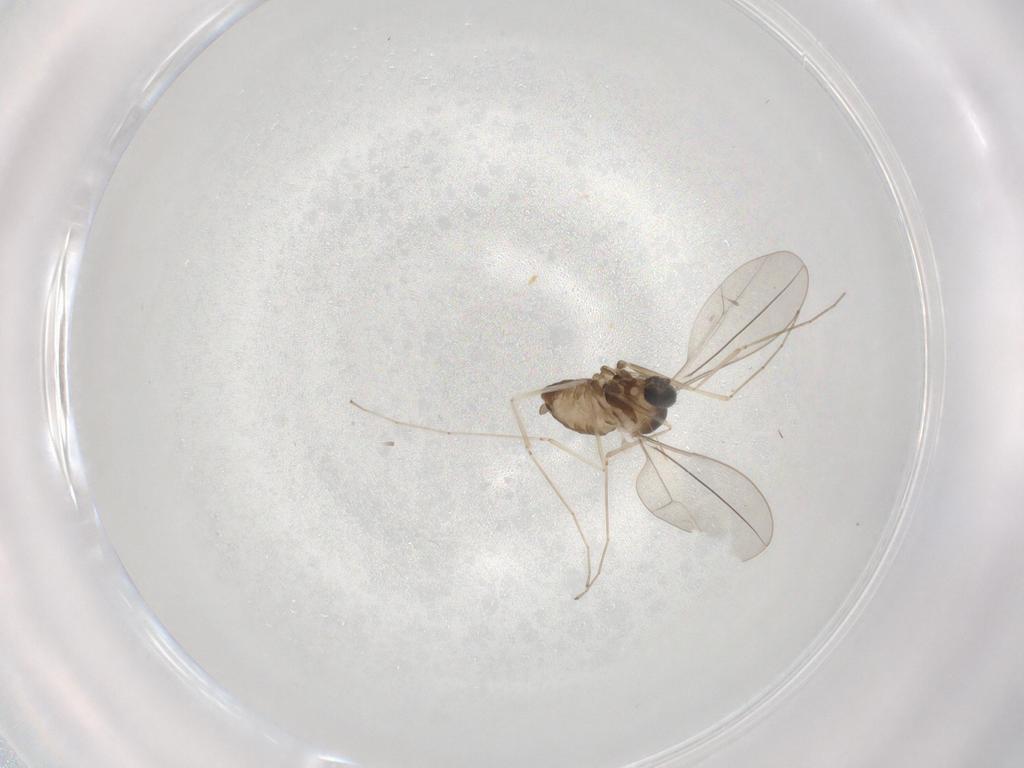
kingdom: Animalia
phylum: Arthropoda
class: Insecta
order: Diptera
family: Cecidomyiidae
